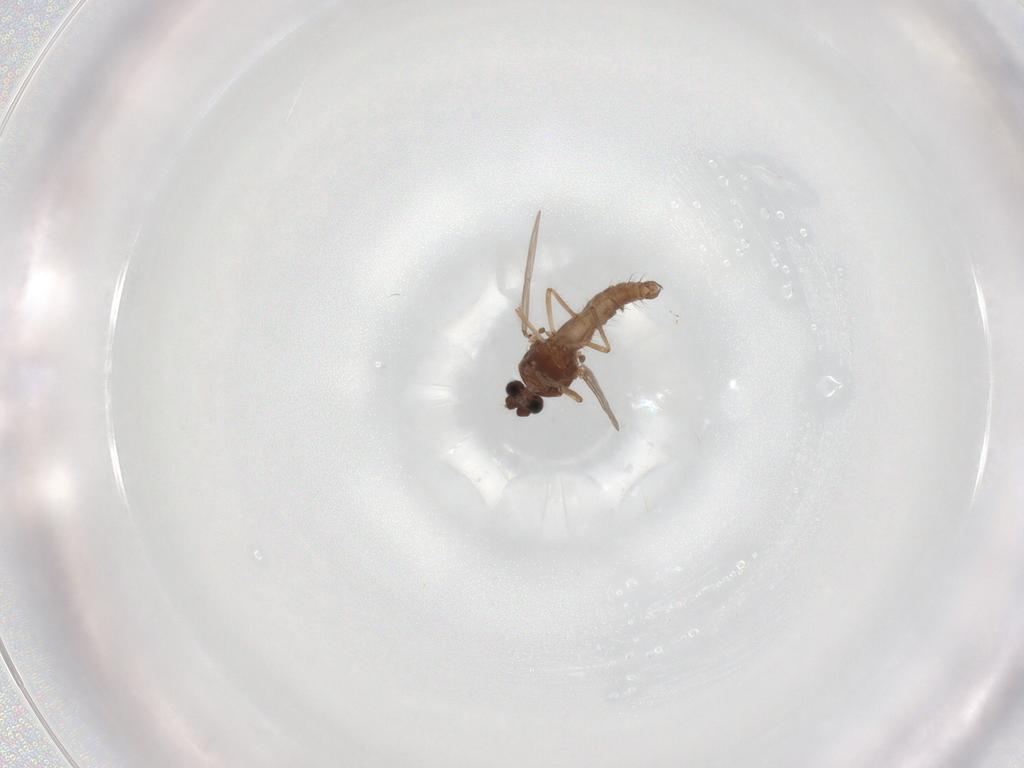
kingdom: Animalia
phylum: Arthropoda
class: Insecta
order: Diptera
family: Ceratopogonidae
